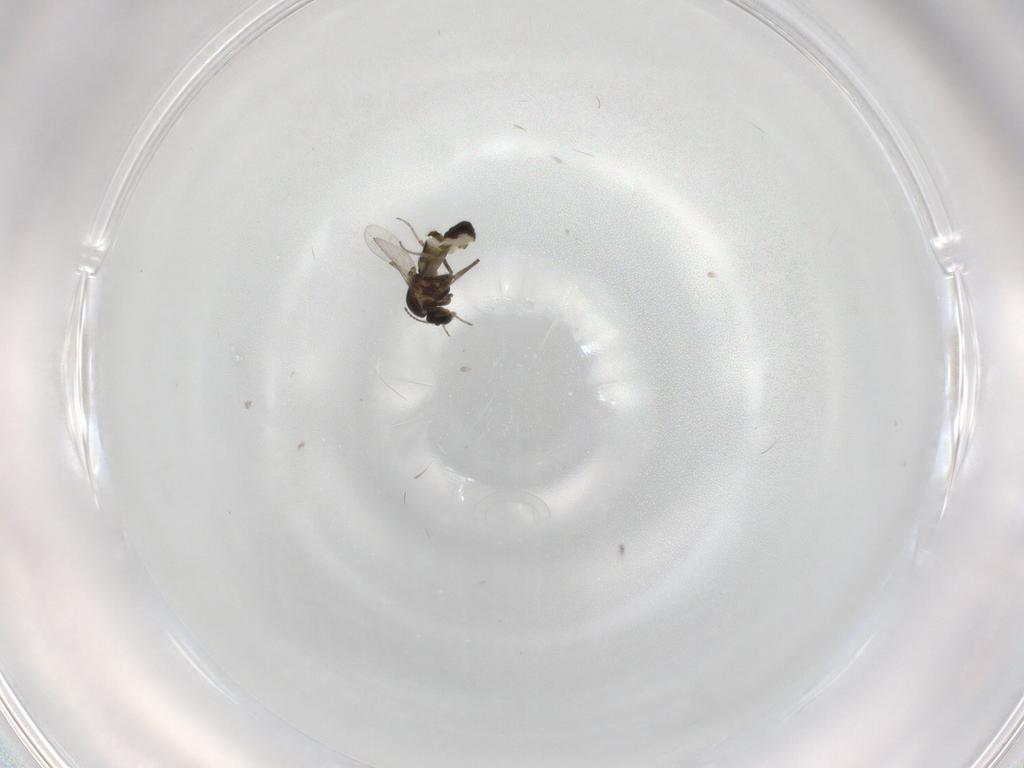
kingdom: Animalia
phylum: Arthropoda
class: Insecta
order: Diptera
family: Ceratopogonidae
